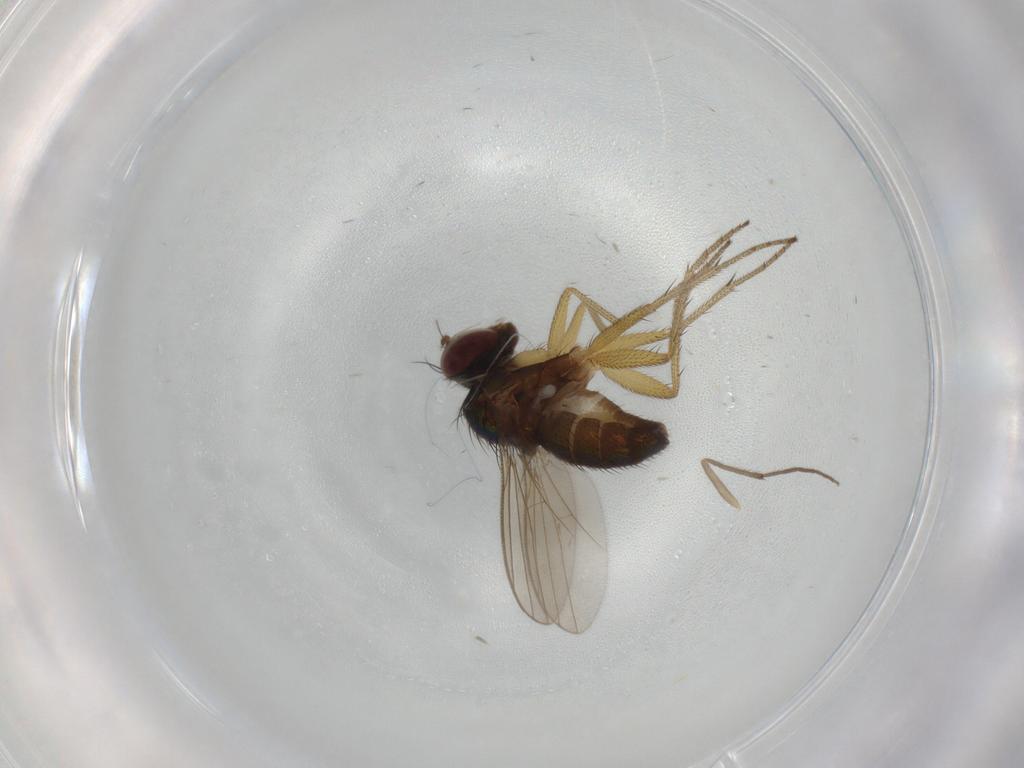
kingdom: Animalia
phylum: Arthropoda
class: Insecta
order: Diptera
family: Dolichopodidae
